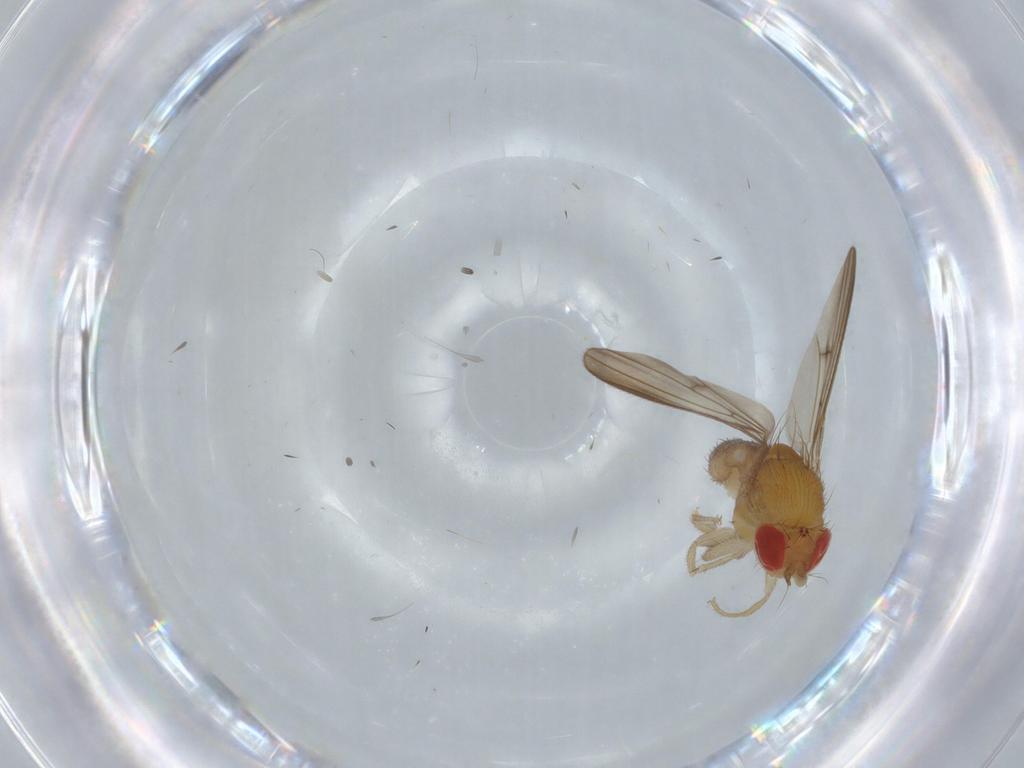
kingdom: Animalia
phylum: Arthropoda
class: Insecta
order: Diptera
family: Drosophilidae
